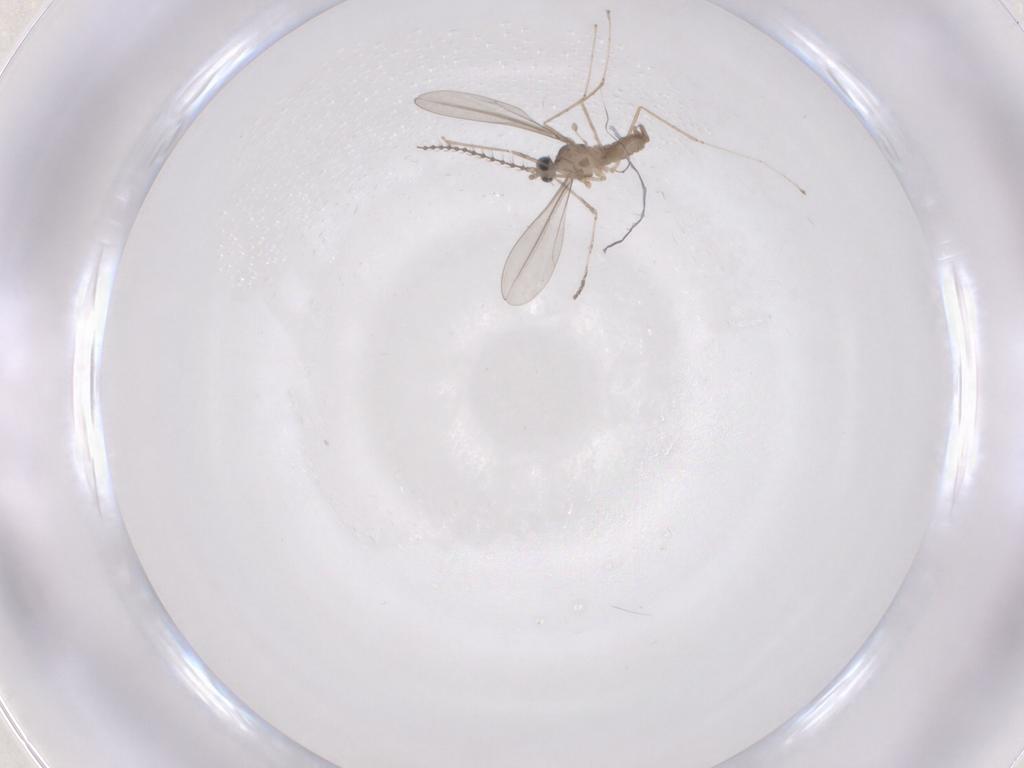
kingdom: Animalia
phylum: Arthropoda
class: Insecta
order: Diptera
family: Cecidomyiidae
